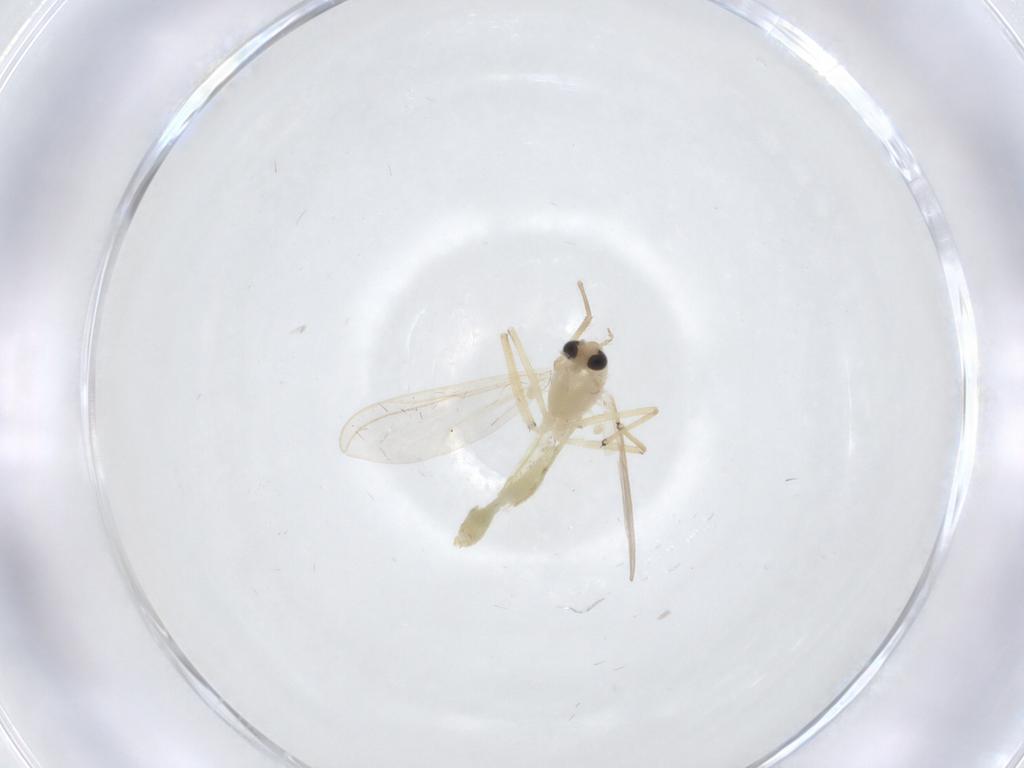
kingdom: Animalia
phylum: Arthropoda
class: Insecta
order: Diptera
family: Chironomidae
